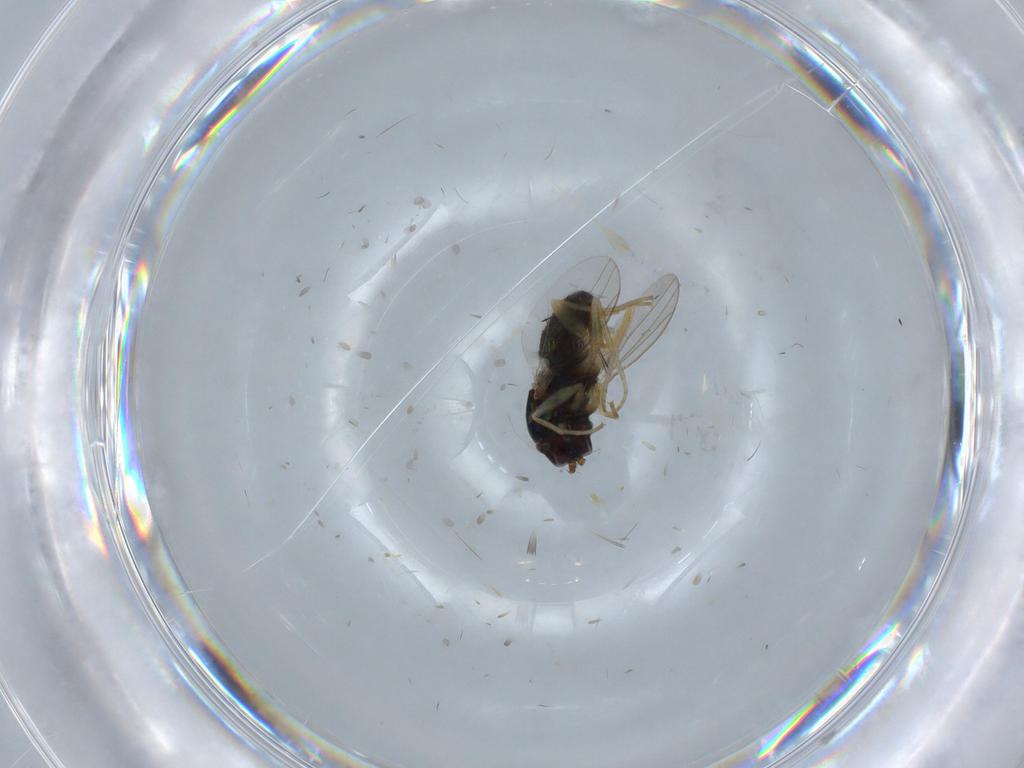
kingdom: Animalia
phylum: Arthropoda
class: Insecta
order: Diptera
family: Dolichopodidae
